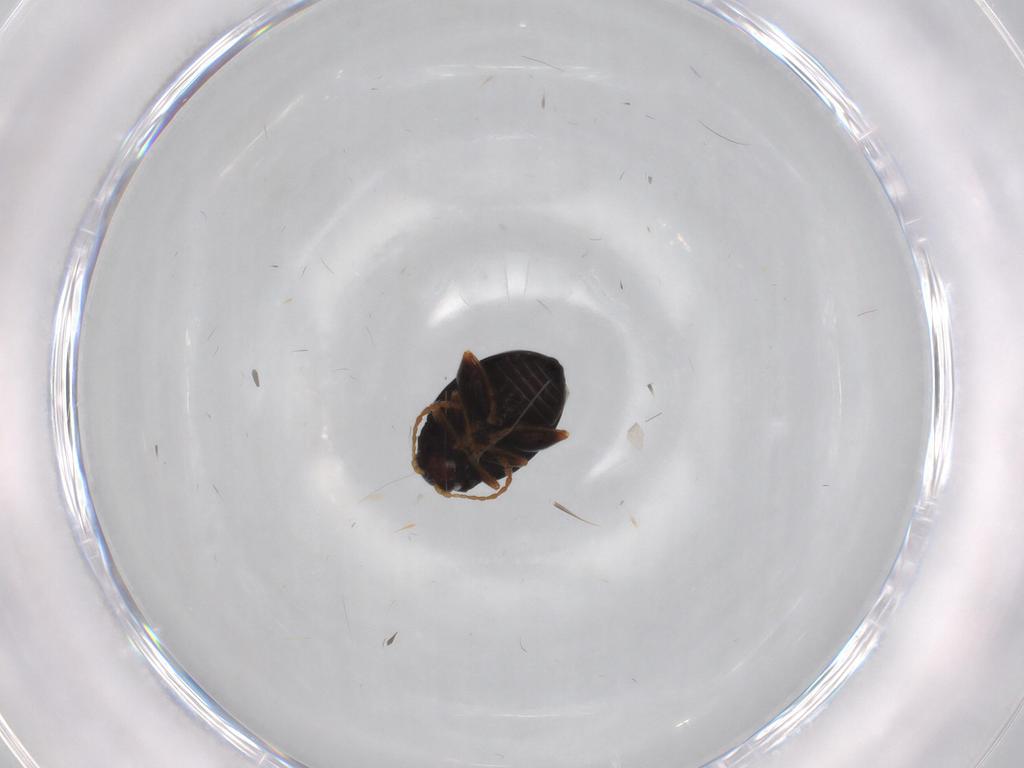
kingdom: Animalia
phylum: Arthropoda
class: Insecta
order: Coleoptera
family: Chrysomelidae
